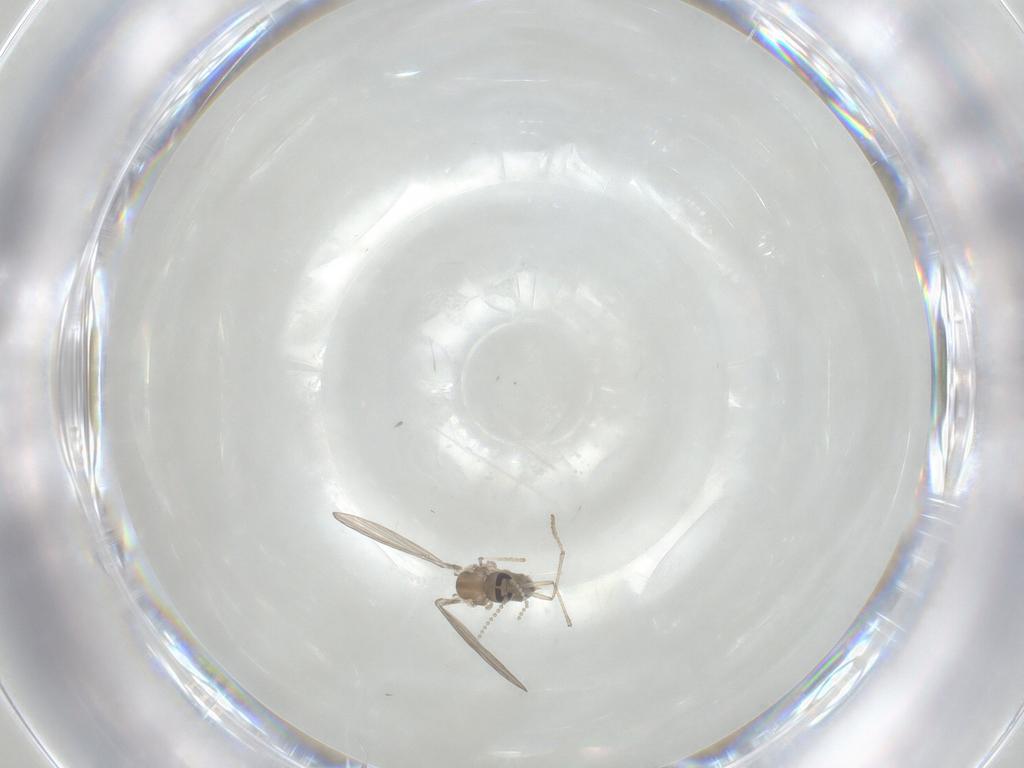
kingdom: Animalia
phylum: Arthropoda
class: Insecta
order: Diptera
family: Psychodidae
